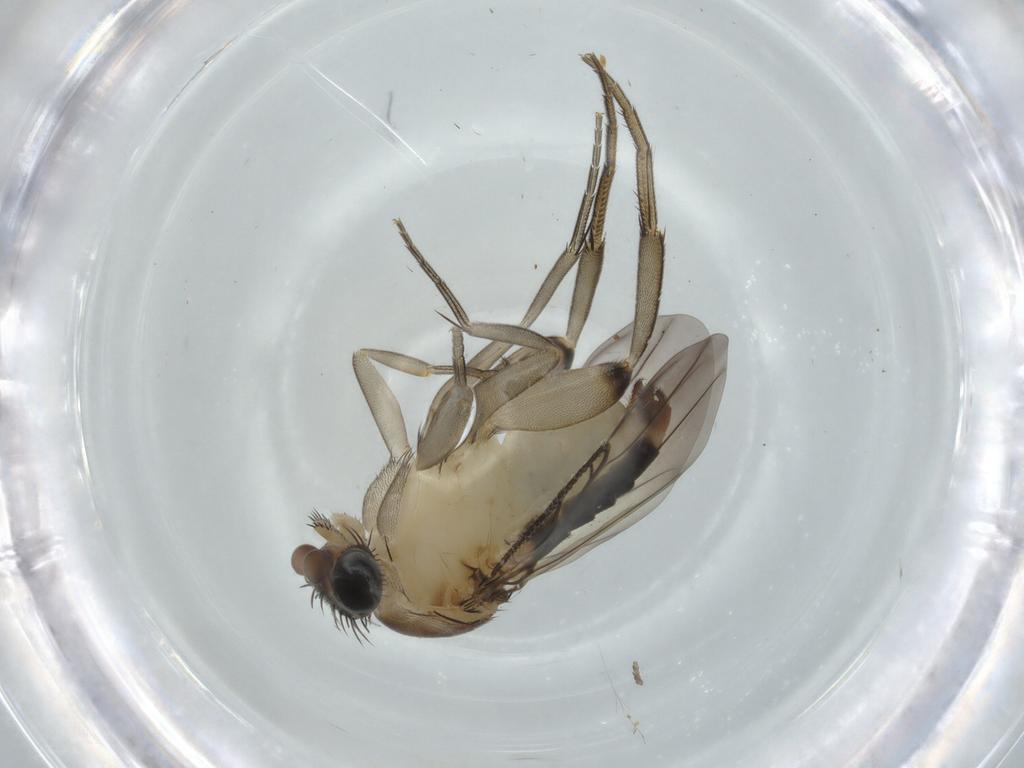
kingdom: Animalia
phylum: Arthropoda
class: Insecta
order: Diptera
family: Phoridae
